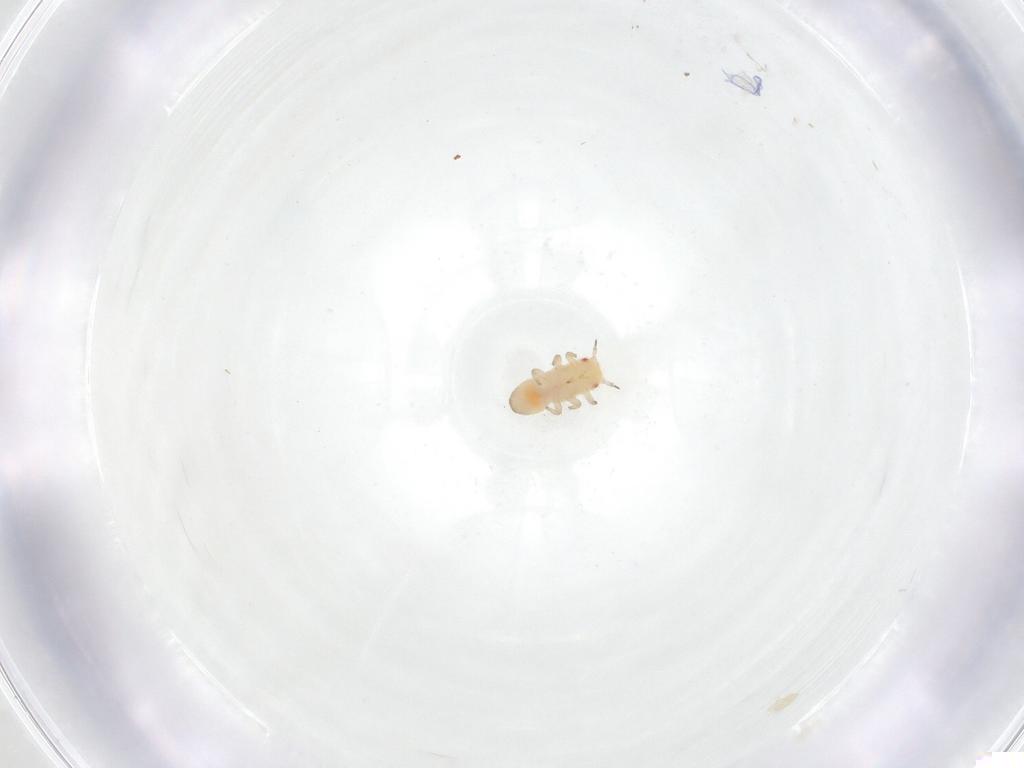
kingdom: Animalia
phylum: Arthropoda
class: Insecta
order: Hemiptera
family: Aphalaridae
